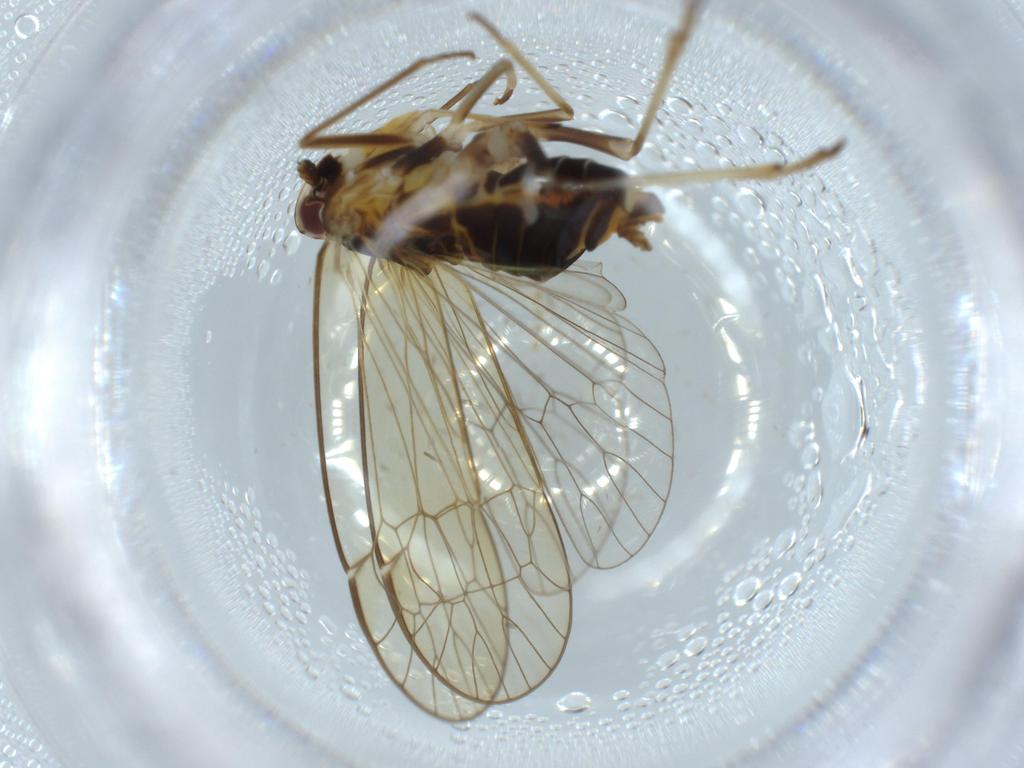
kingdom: Animalia
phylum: Arthropoda
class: Insecta
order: Hemiptera
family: Kinnaridae
